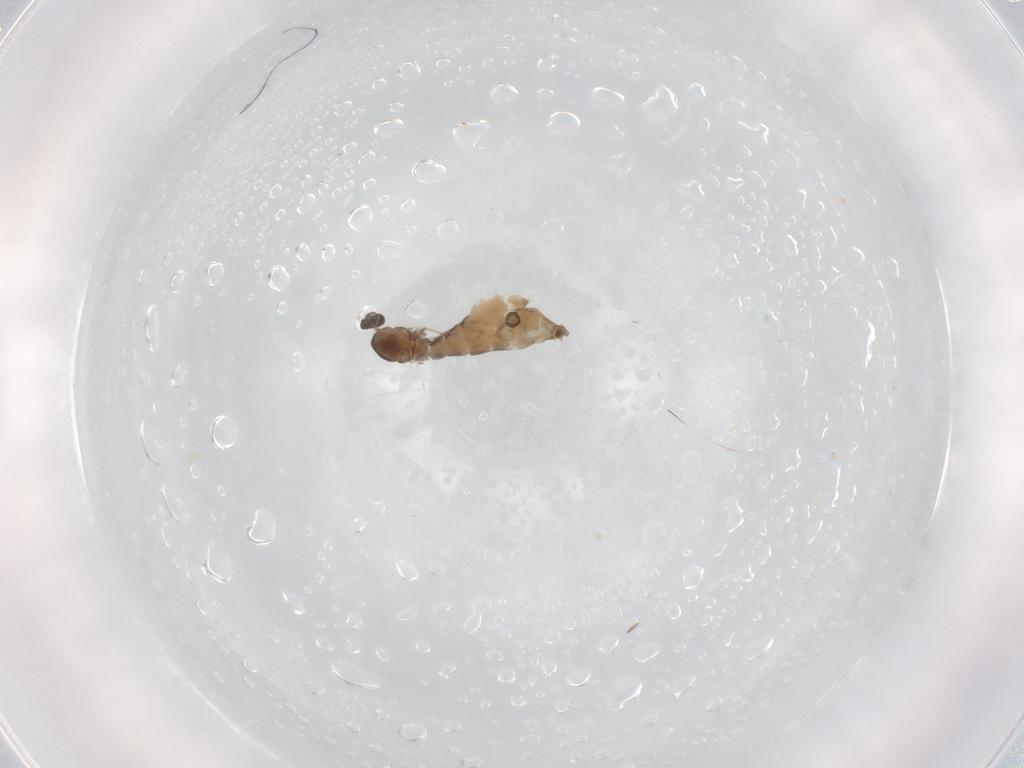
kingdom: Animalia
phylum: Arthropoda
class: Insecta
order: Diptera
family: Cecidomyiidae
